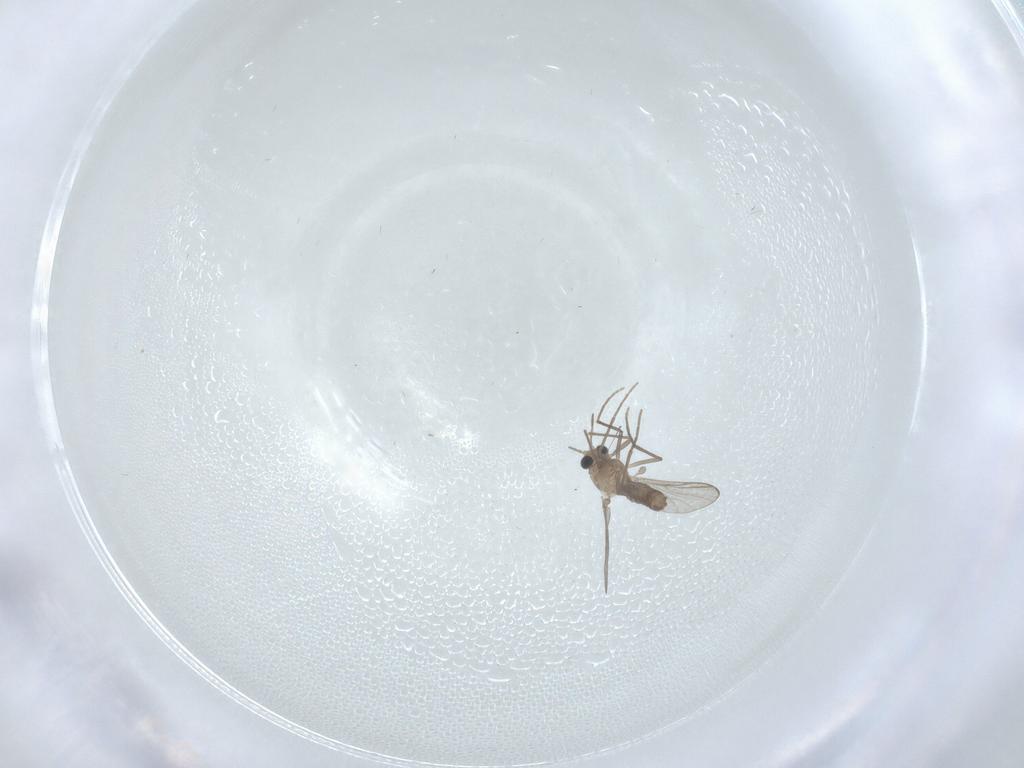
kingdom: Animalia
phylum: Arthropoda
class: Insecta
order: Diptera
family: Chironomidae
